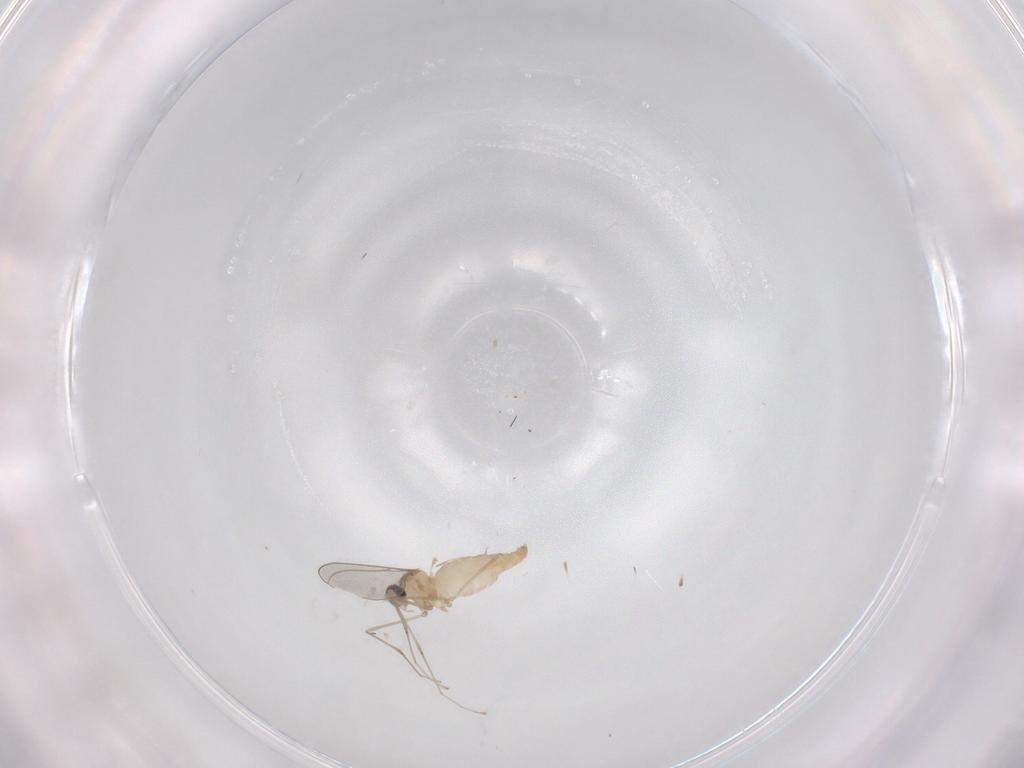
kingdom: Animalia
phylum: Arthropoda
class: Insecta
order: Diptera
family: Cecidomyiidae
